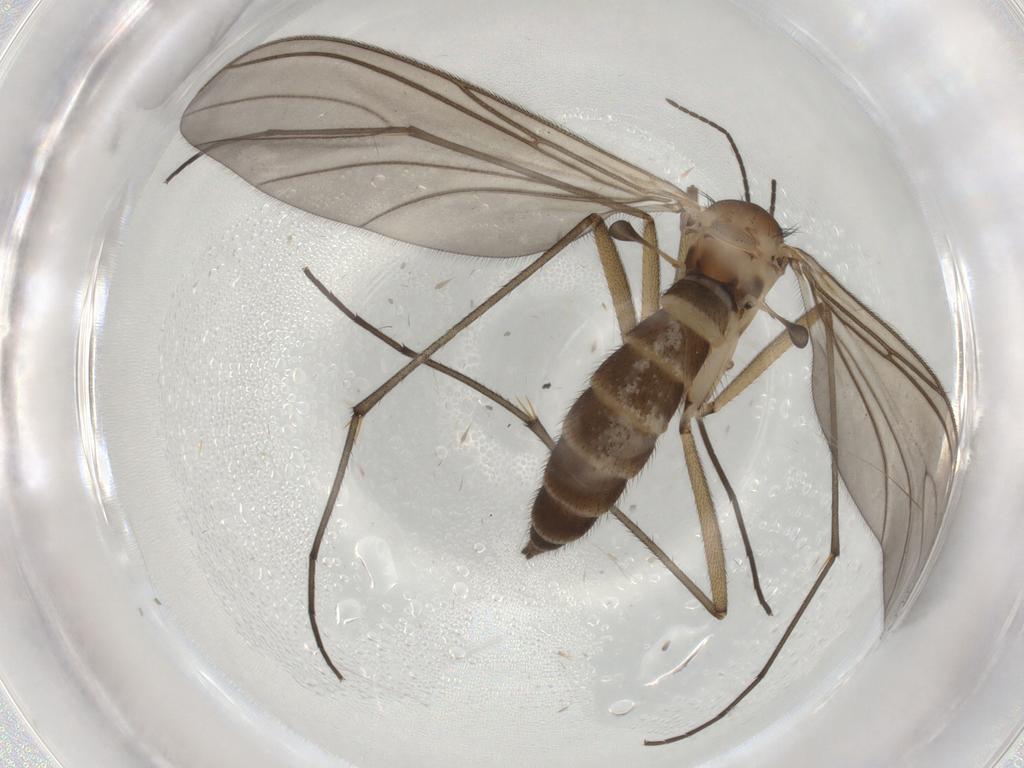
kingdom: Animalia
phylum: Arthropoda
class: Insecta
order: Diptera
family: Sciaridae
